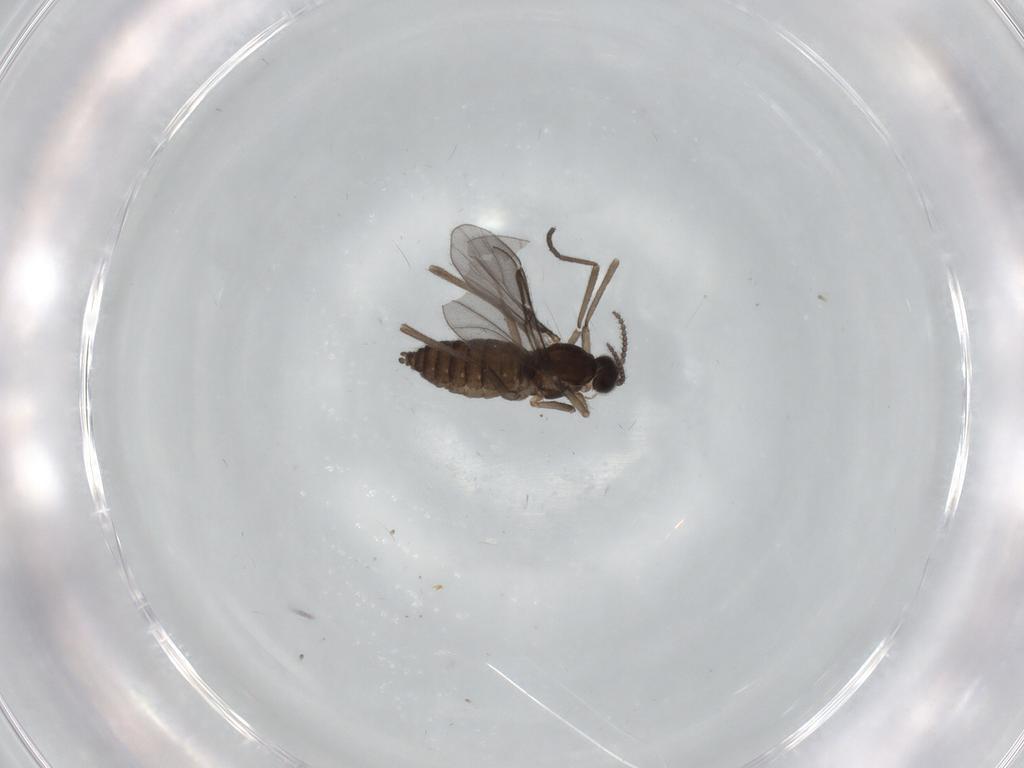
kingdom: Animalia
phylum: Arthropoda
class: Insecta
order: Diptera
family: Cecidomyiidae
